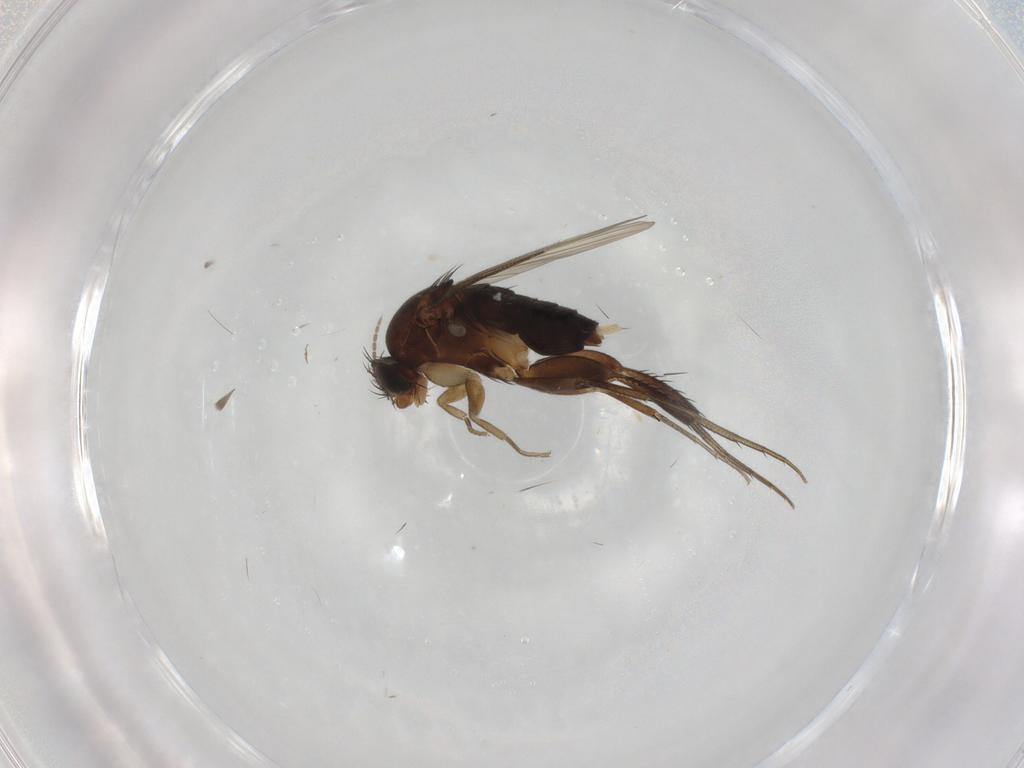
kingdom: Animalia
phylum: Arthropoda
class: Insecta
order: Diptera
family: Phoridae
